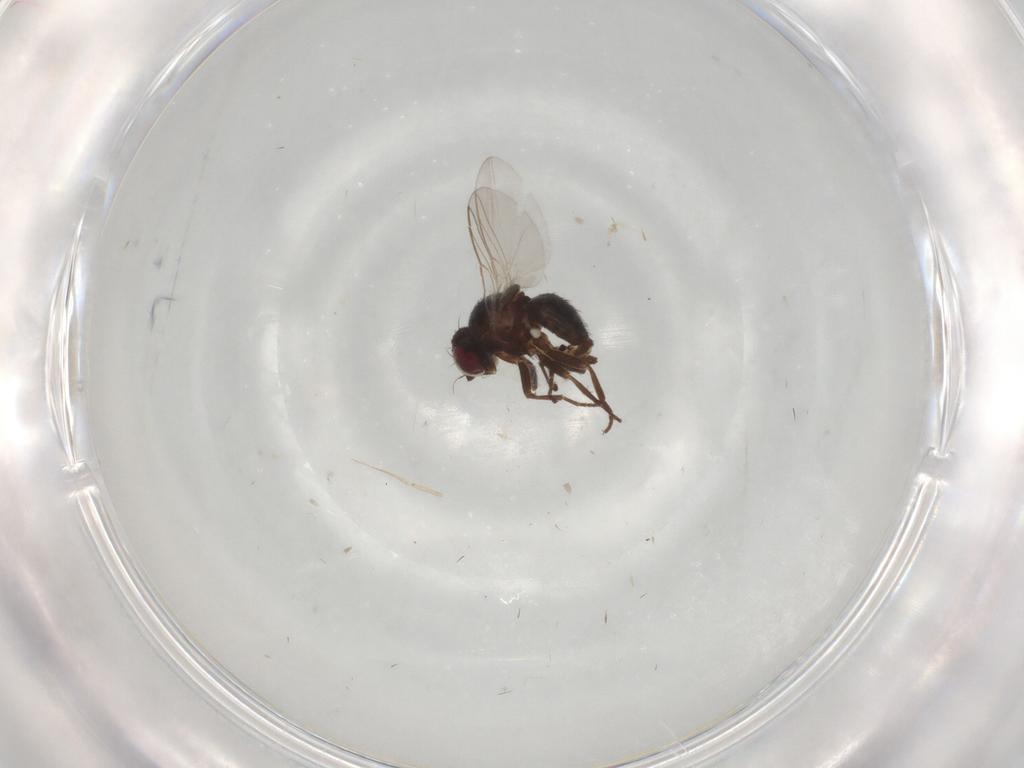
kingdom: Animalia
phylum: Arthropoda
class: Insecta
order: Diptera
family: Agromyzidae
